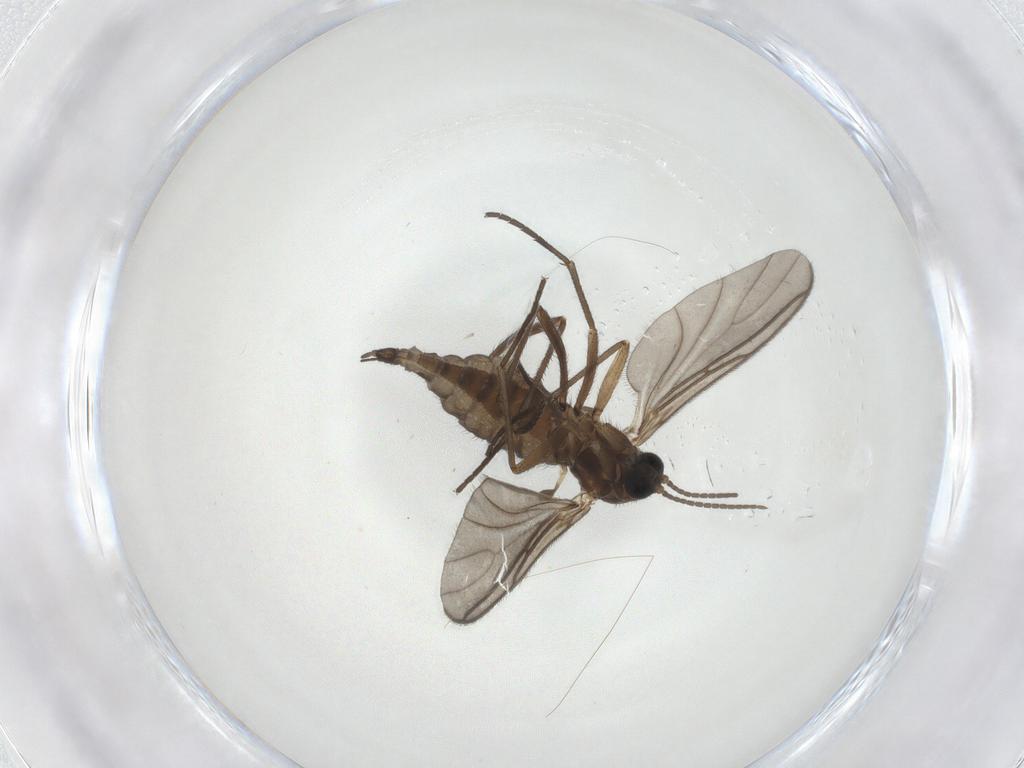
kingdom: Animalia
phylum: Arthropoda
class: Insecta
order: Diptera
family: Sciaridae
